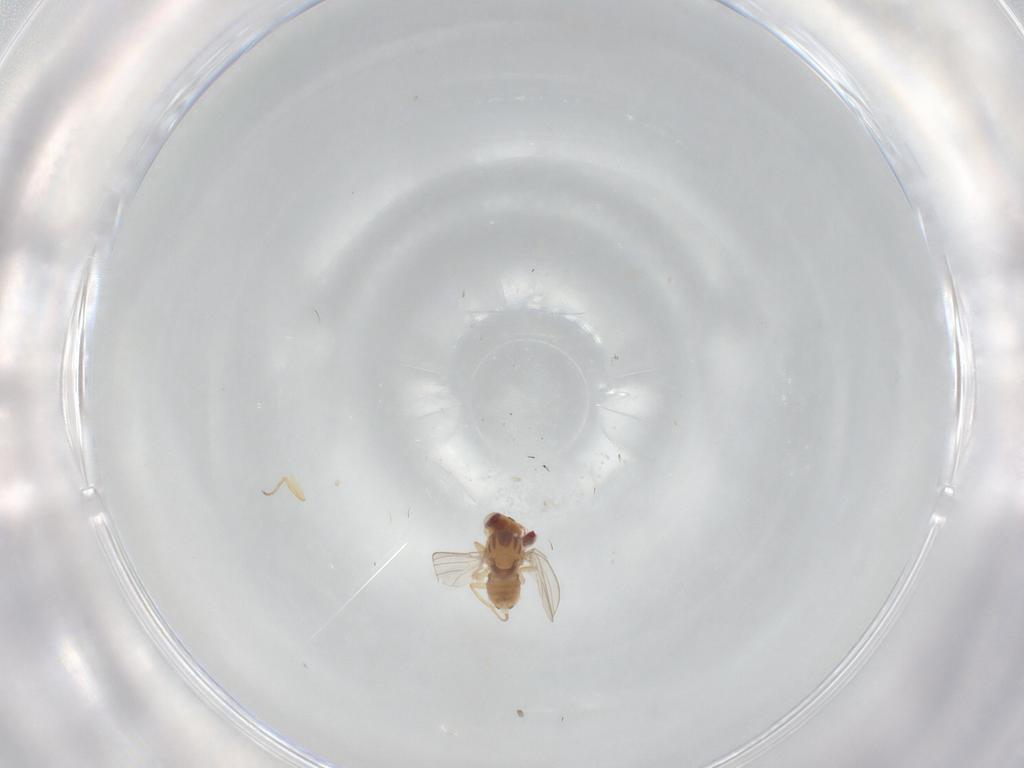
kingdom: Animalia
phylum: Arthropoda
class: Insecta
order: Diptera
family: Chyromyidae
